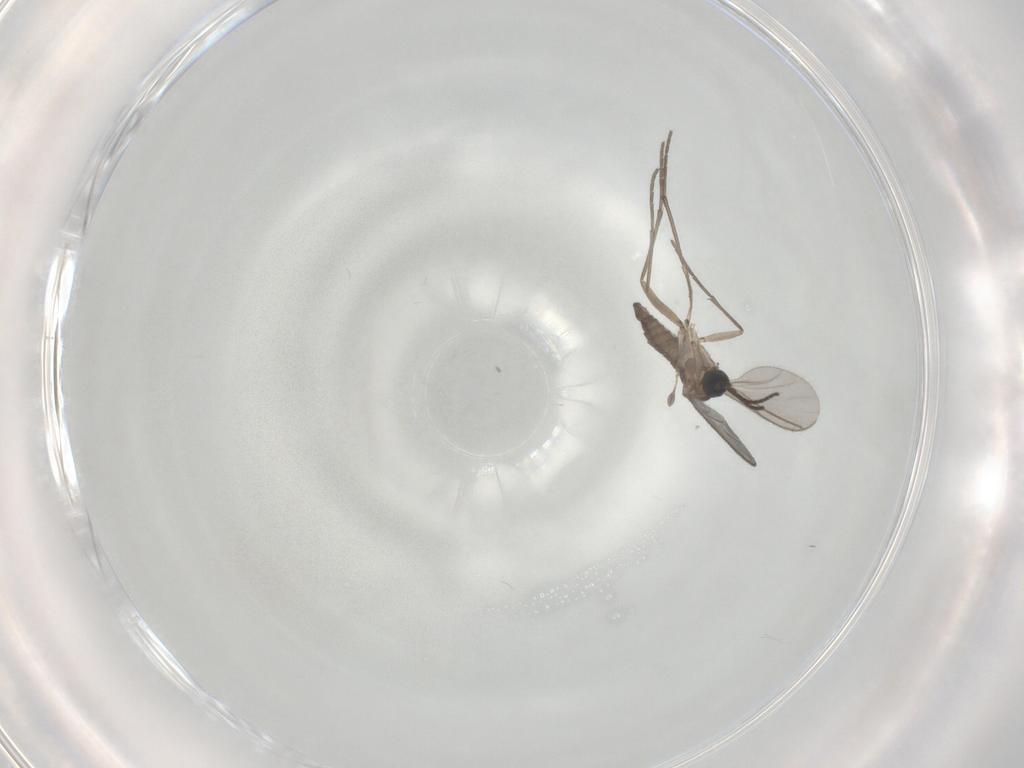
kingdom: Animalia
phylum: Arthropoda
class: Insecta
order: Diptera
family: Sciaridae
